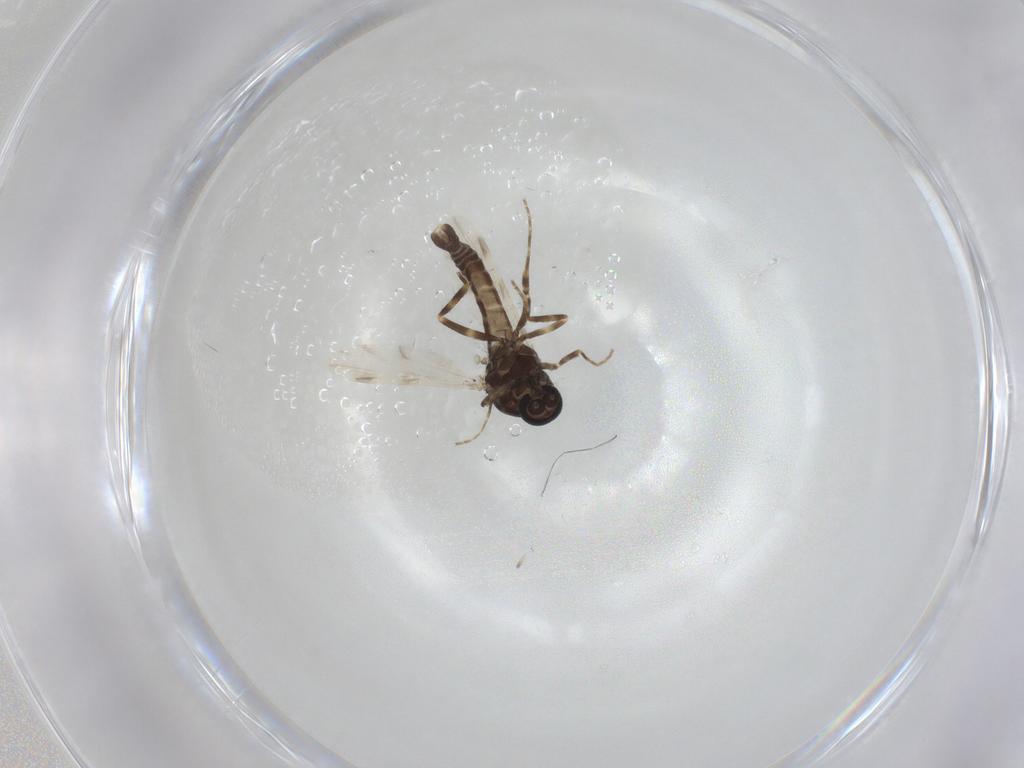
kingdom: Animalia
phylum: Arthropoda
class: Insecta
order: Diptera
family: Ceratopogonidae
